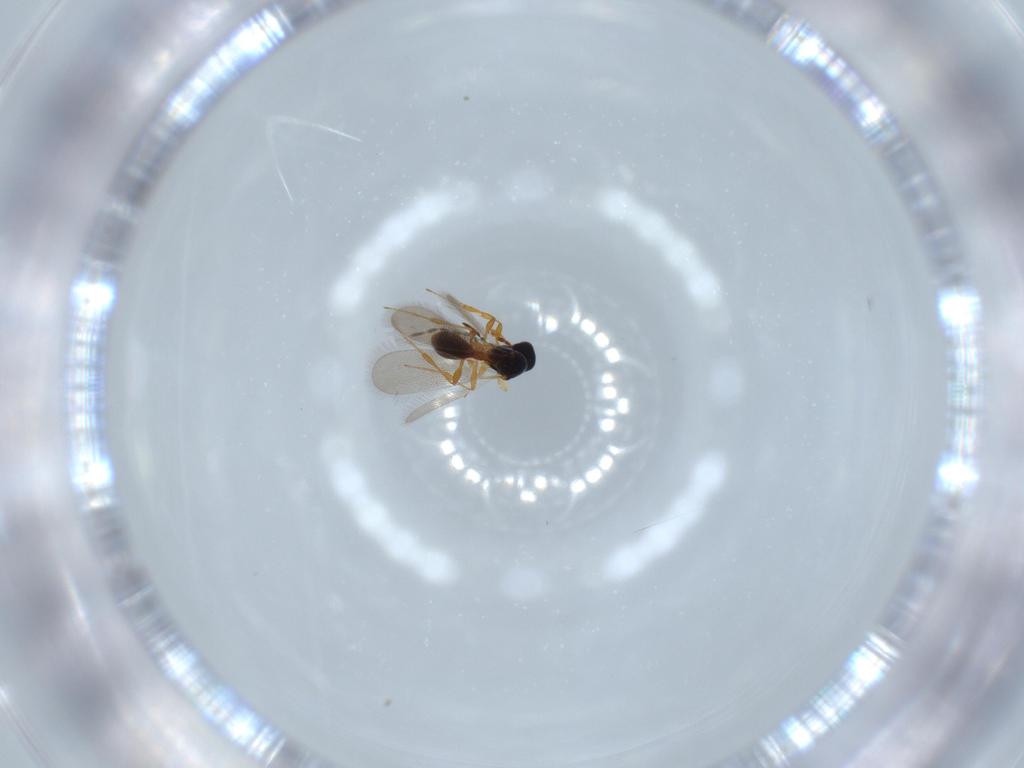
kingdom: Animalia
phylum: Arthropoda
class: Insecta
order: Hymenoptera
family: Platygastridae
